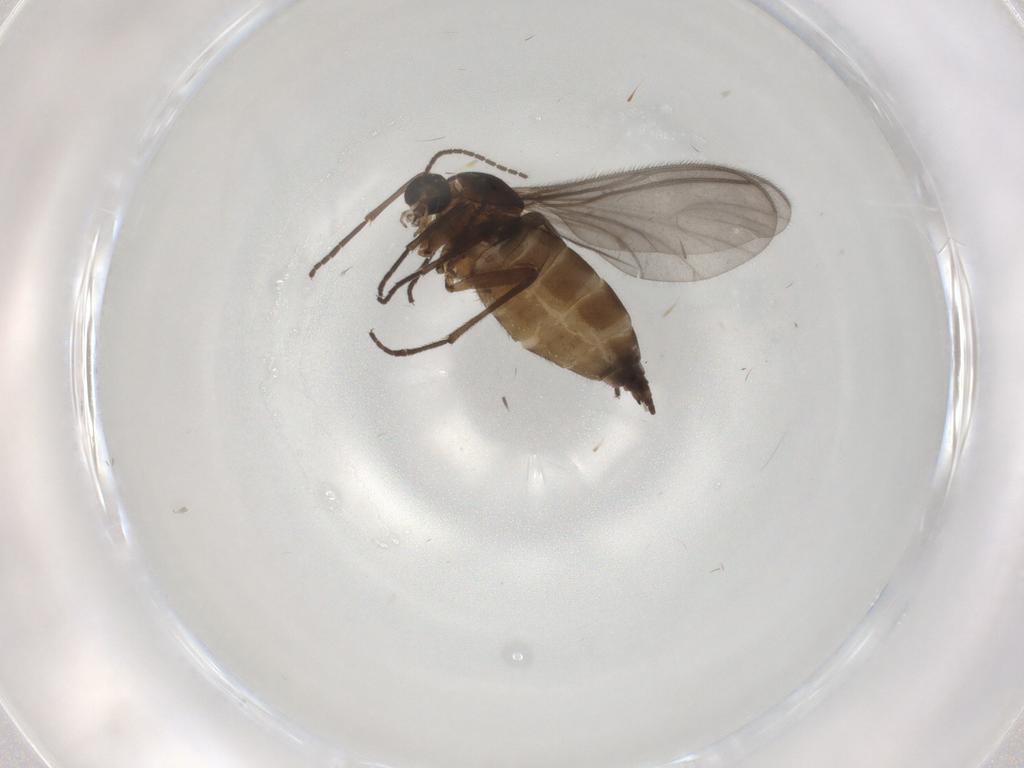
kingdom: Animalia
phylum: Arthropoda
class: Insecta
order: Diptera
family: Sciaridae
